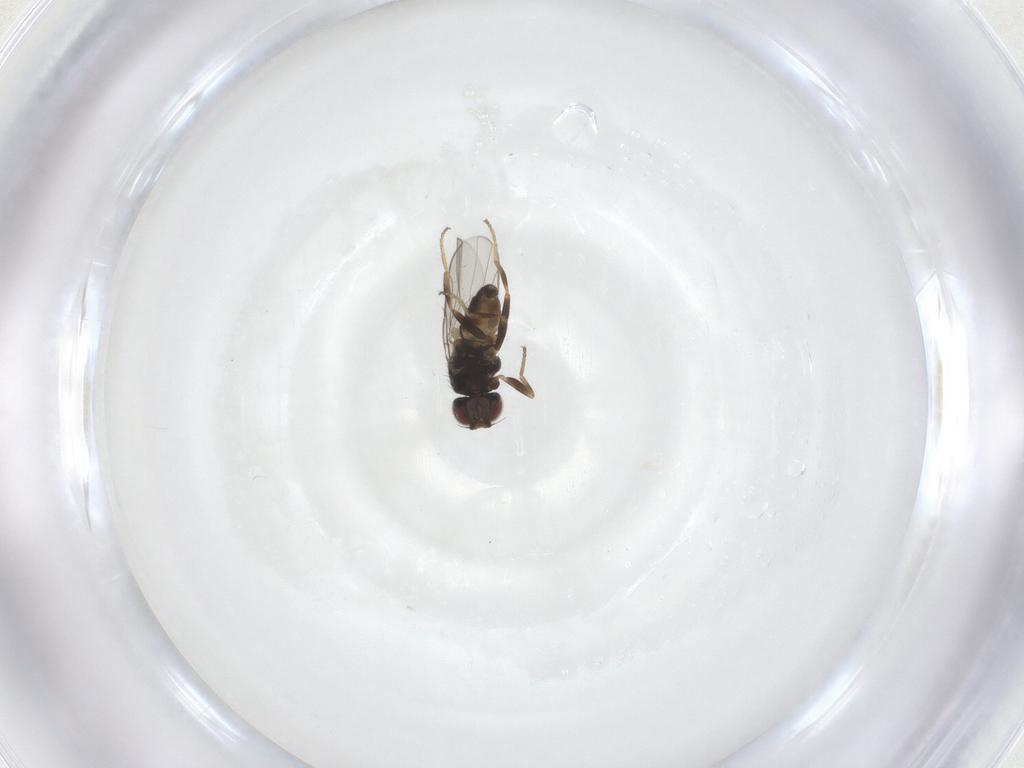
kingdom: Animalia
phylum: Arthropoda
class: Insecta
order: Diptera
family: Chloropidae
